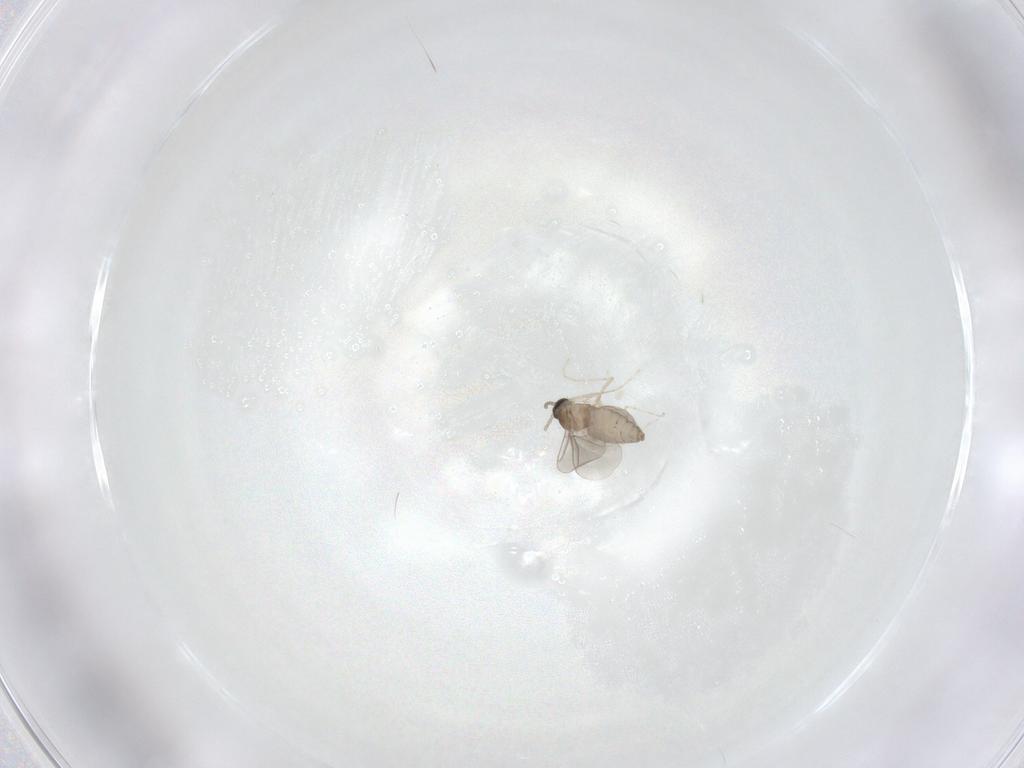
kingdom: Animalia
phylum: Arthropoda
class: Insecta
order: Diptera
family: Cecidomyiidae
